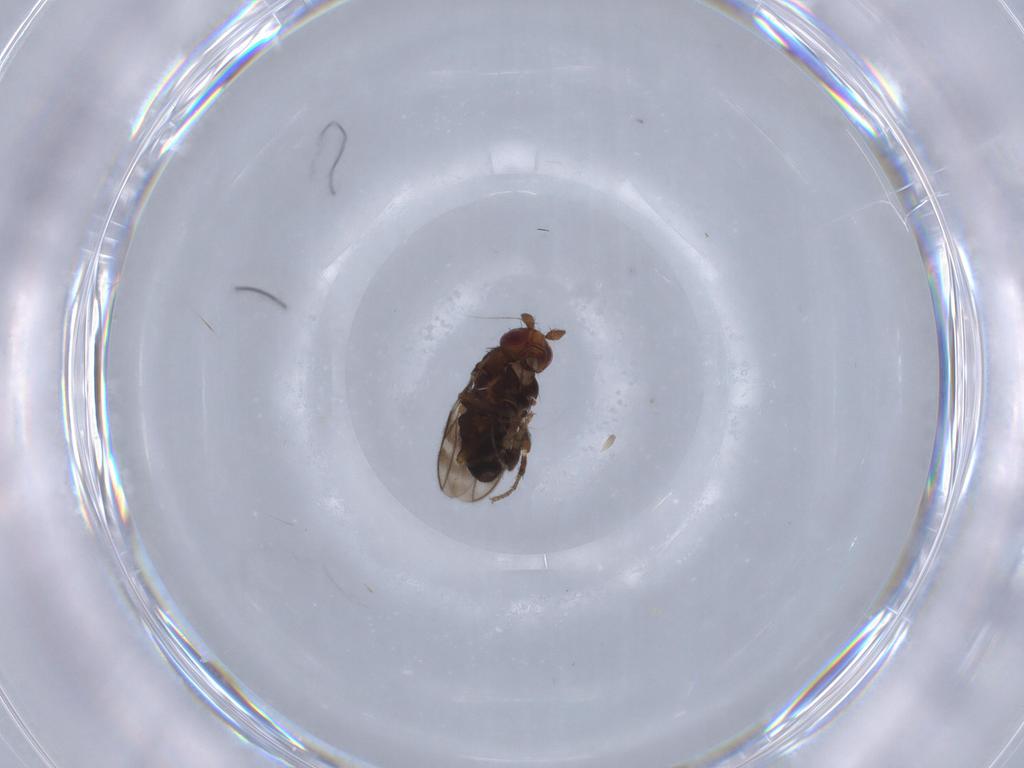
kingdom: Animalia
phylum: Arthropoda
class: Insecta
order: Diptera
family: Sphaeroceridae
